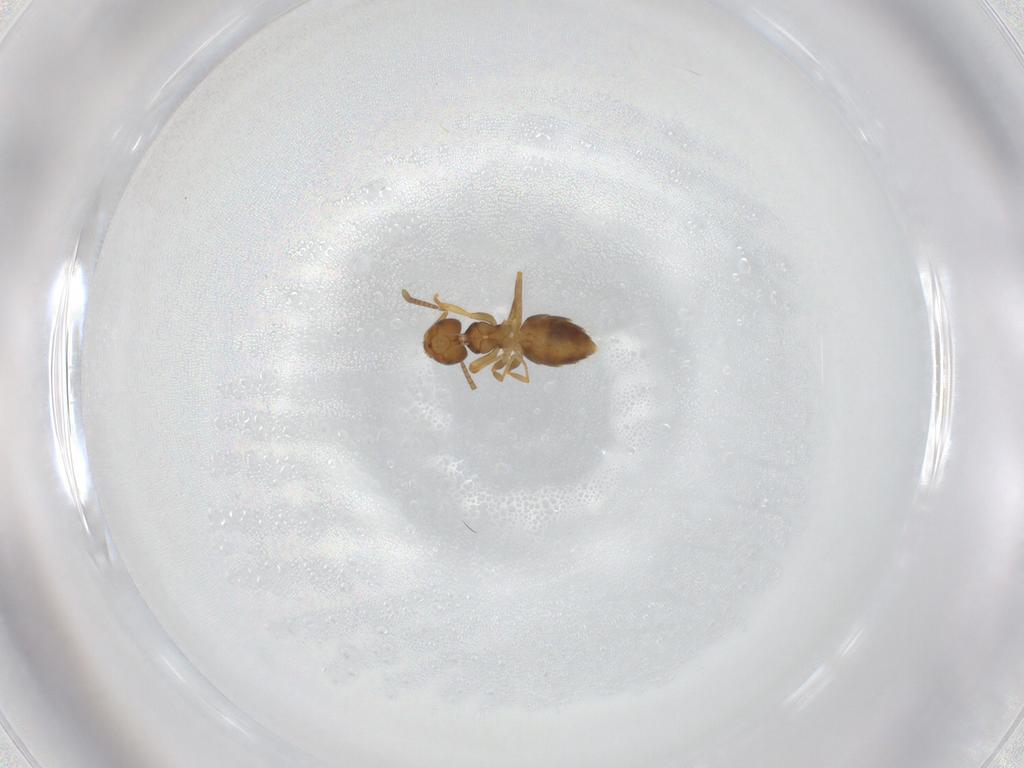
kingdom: Animalia
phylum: Arthropoda
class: Insecta
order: Hymenoptera
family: Formicidae
